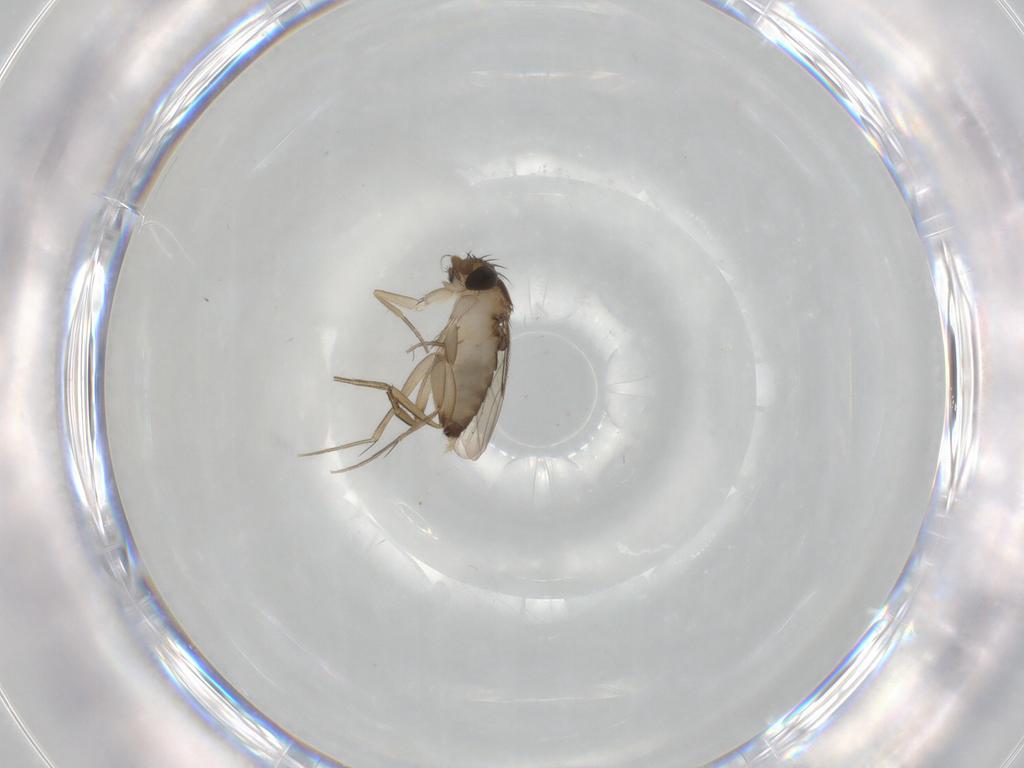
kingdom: Animalia
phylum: Arthropoda
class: Insecta
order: Diptera
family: Phoridae
